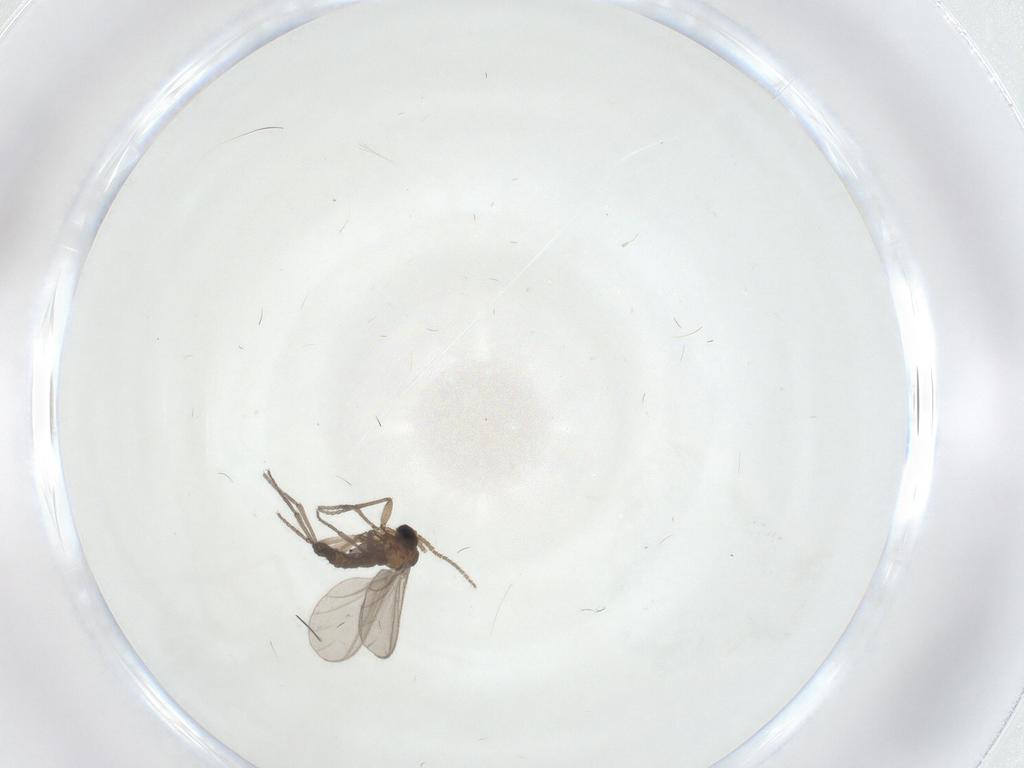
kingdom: Animalia
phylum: Arthropoda
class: Insecta
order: Diptera
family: Sciaridae
